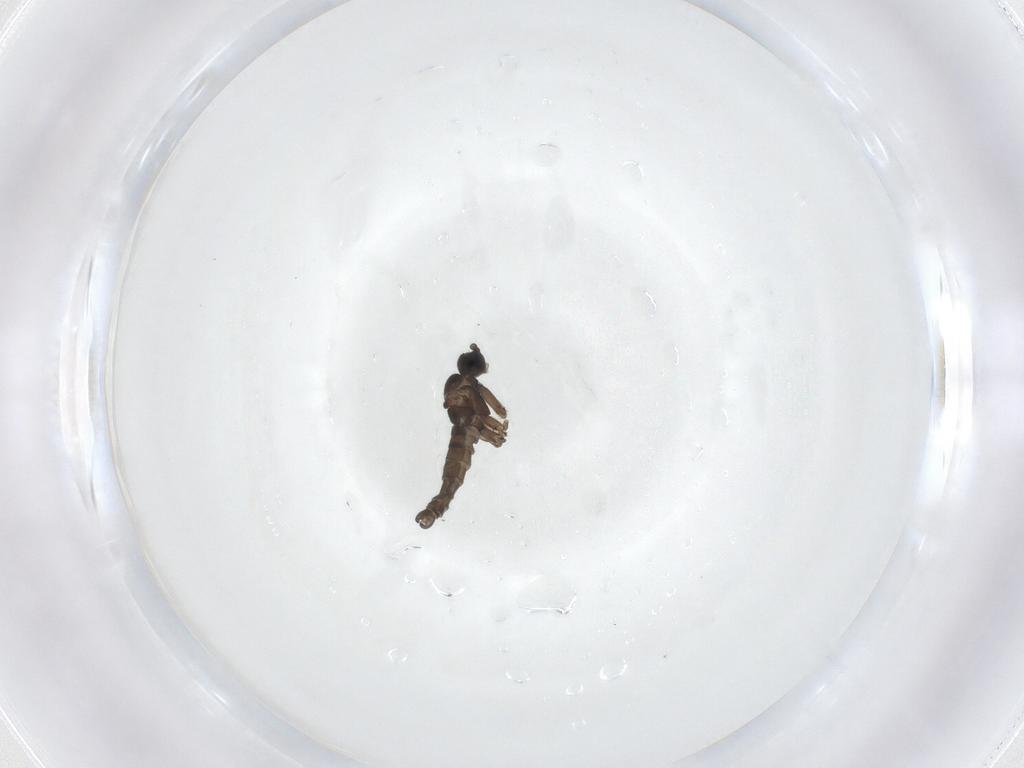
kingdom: Animalia
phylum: Arthropoda
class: Insecta
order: Diptera
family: Sciaridae
